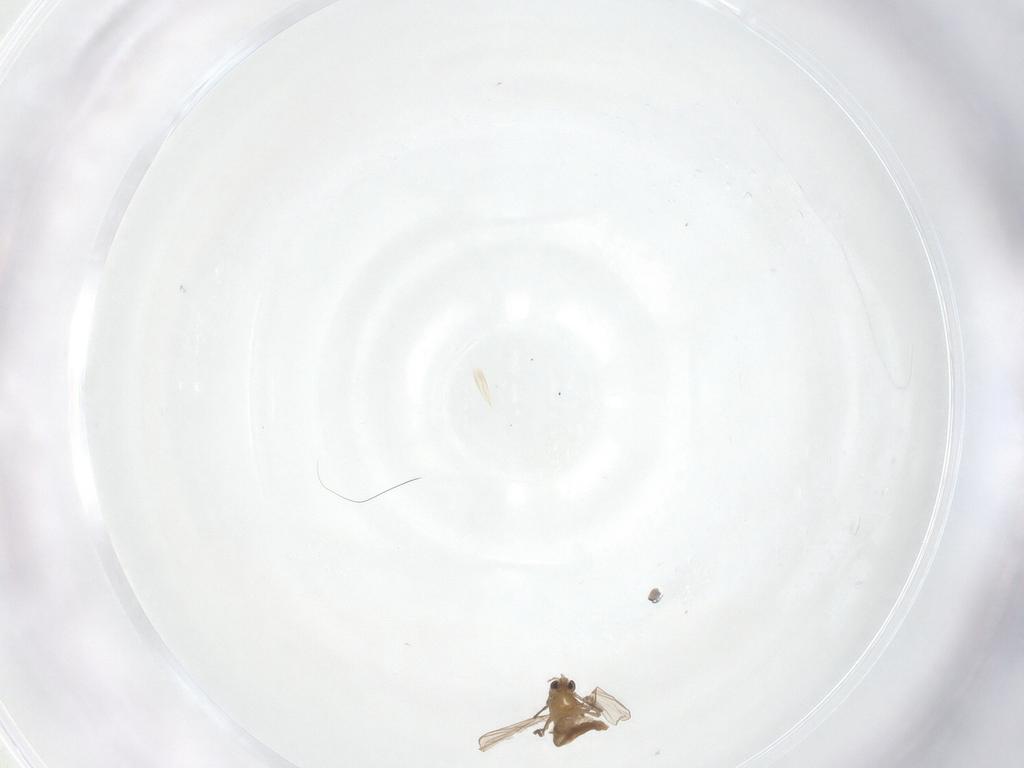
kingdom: Animalia
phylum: Arthropoda
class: Insecta
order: Diptera
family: Chironomidae
